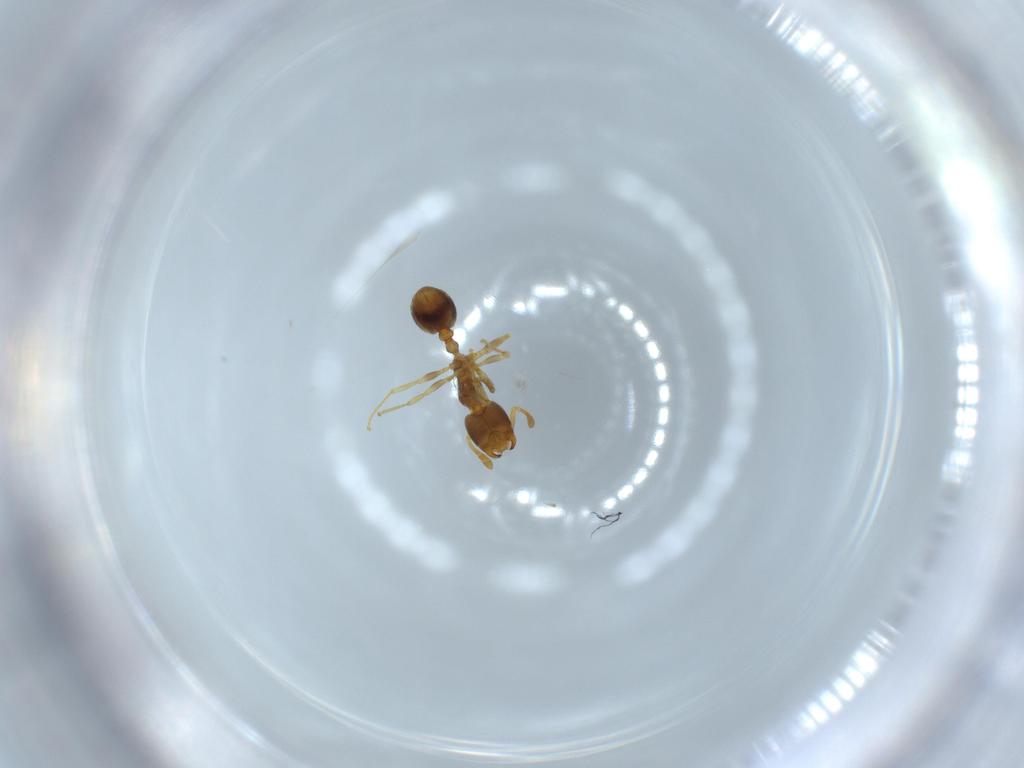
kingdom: Animalia
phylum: Arthropoda
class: Insecta
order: Hymenoptera
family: Formicidae
